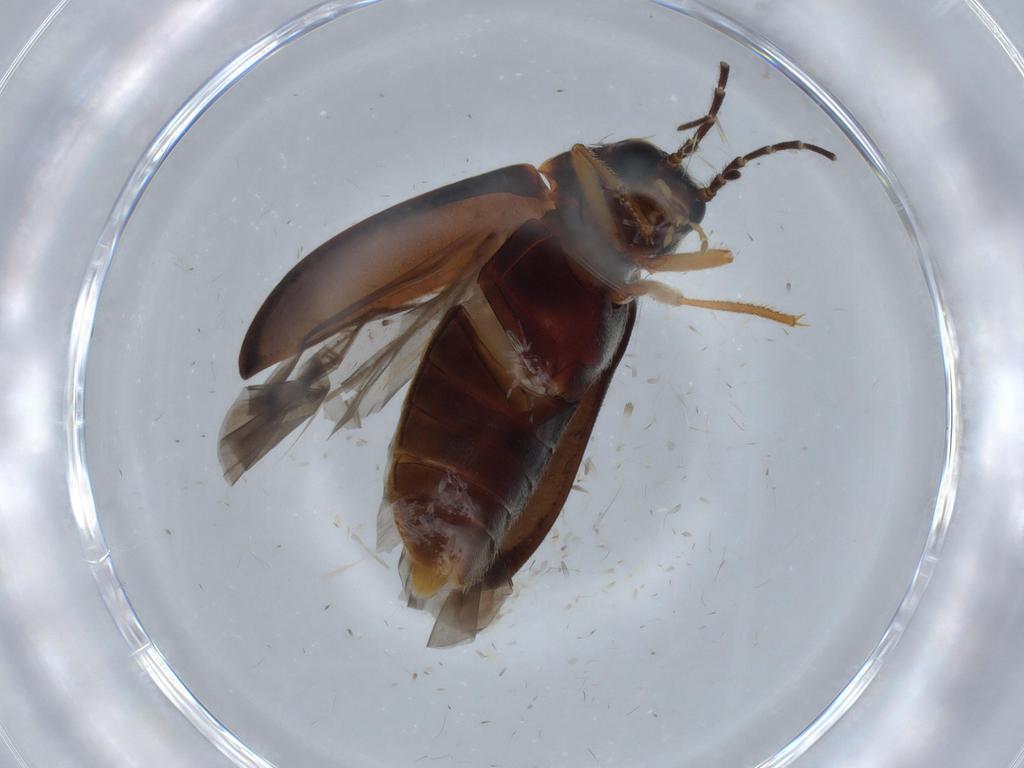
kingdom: Animalia
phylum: Arthropoda
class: Insecta
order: Coleoptera
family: Ptilodactylidae
